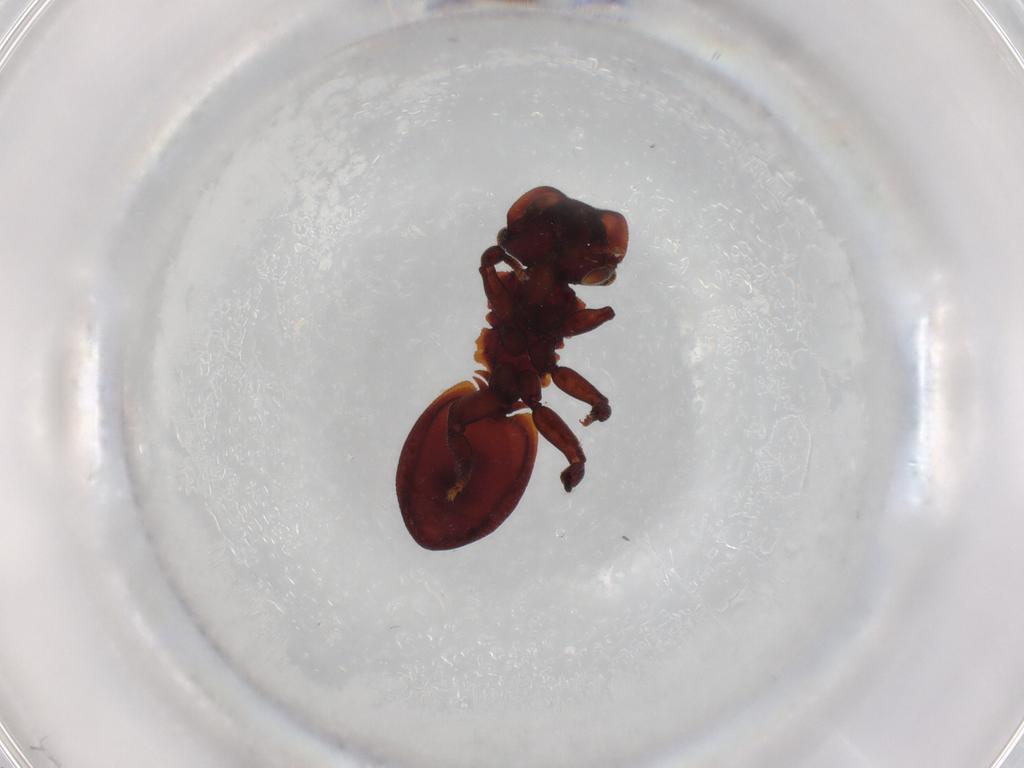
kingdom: Animalia
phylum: Arthropoda
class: Insecta
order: Hymenoptera
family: Formicidae
